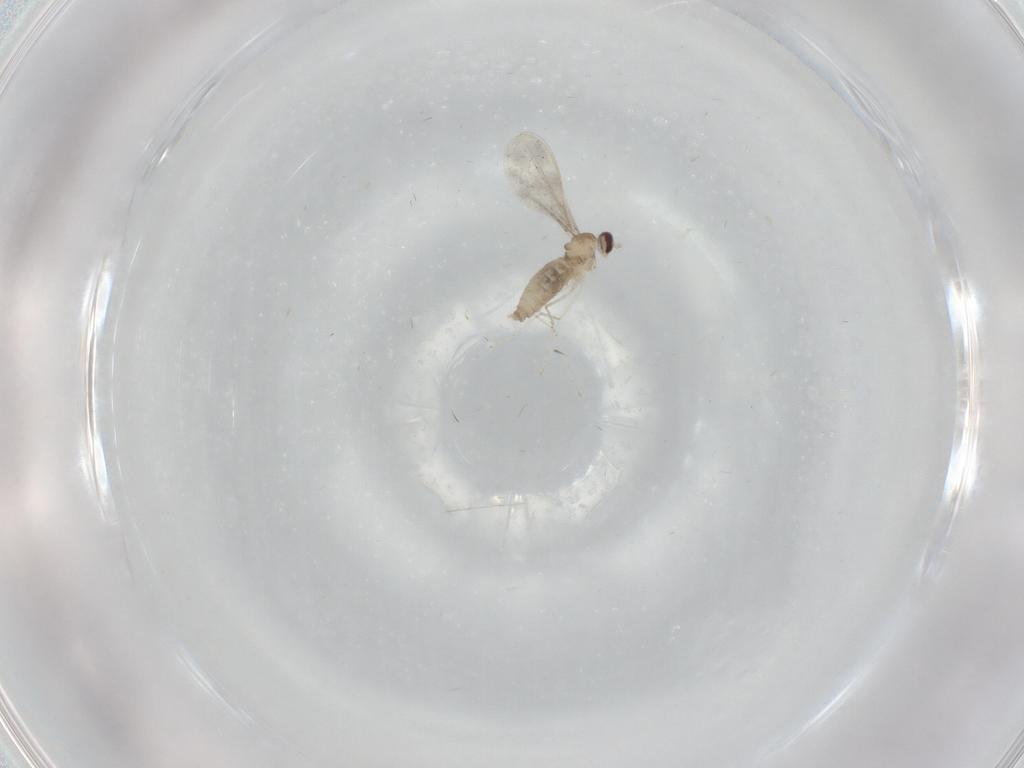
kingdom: Animalia
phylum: Arthropoda
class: Insecta
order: Diptera
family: Cecidomyiidae
